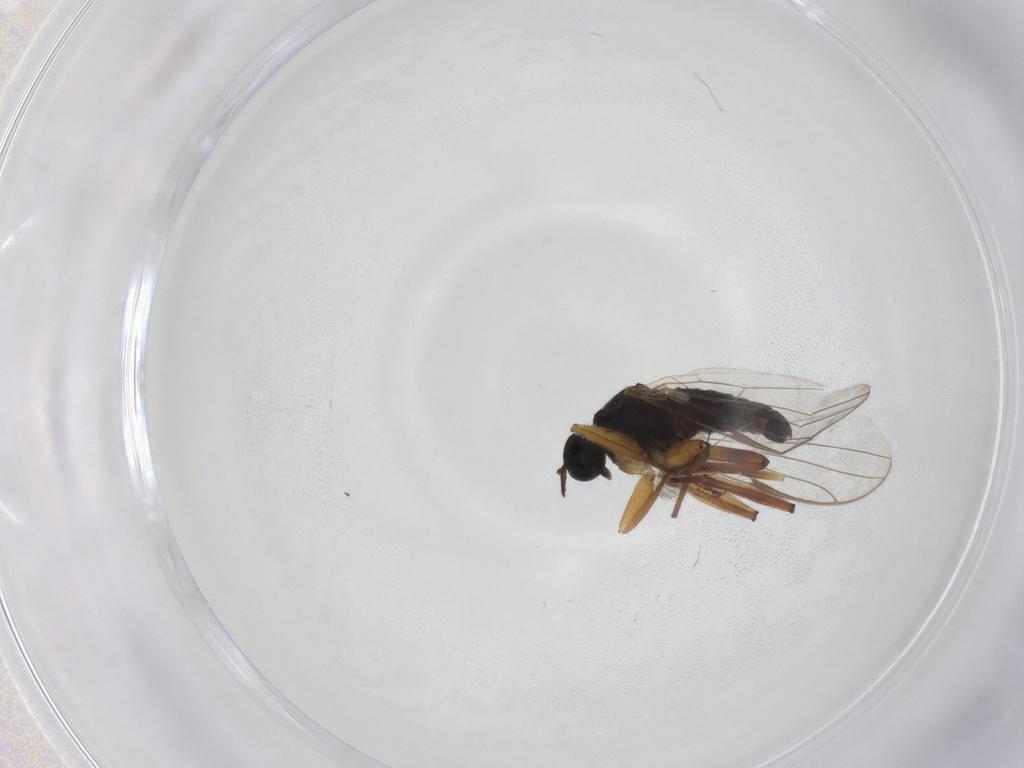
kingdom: Animalia
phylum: Arthropoda
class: Insecta
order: Diptera
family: Hybotidae
